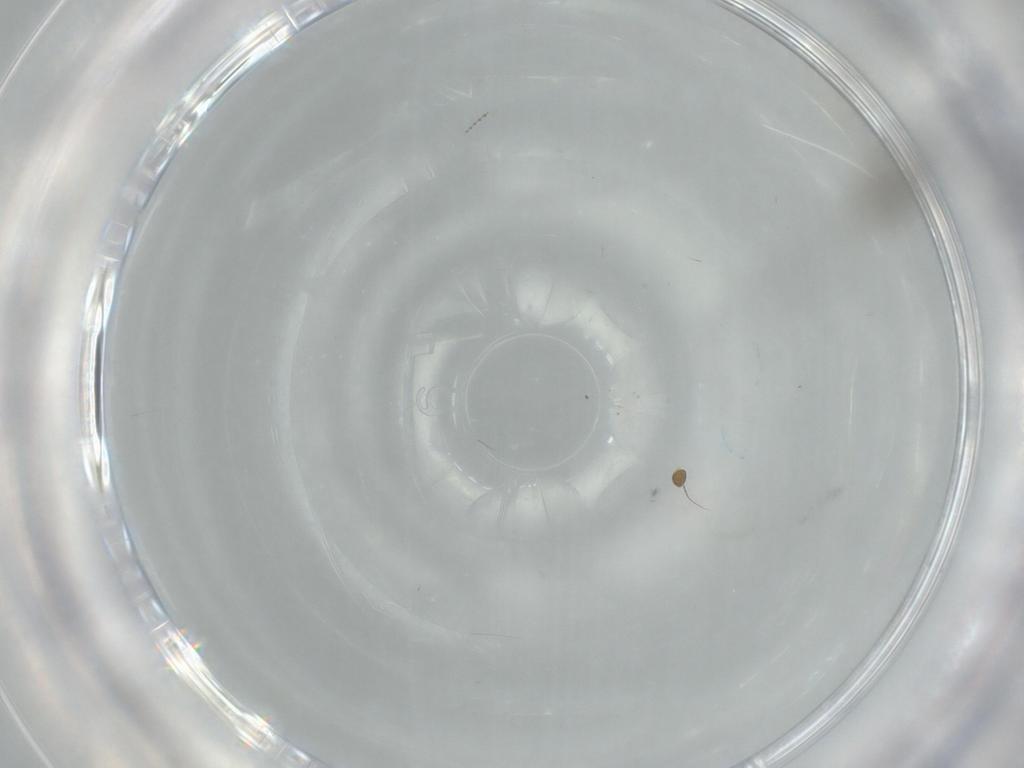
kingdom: Animalia
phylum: Arthropoda
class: Insecta
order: Diptera
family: Phoridae
